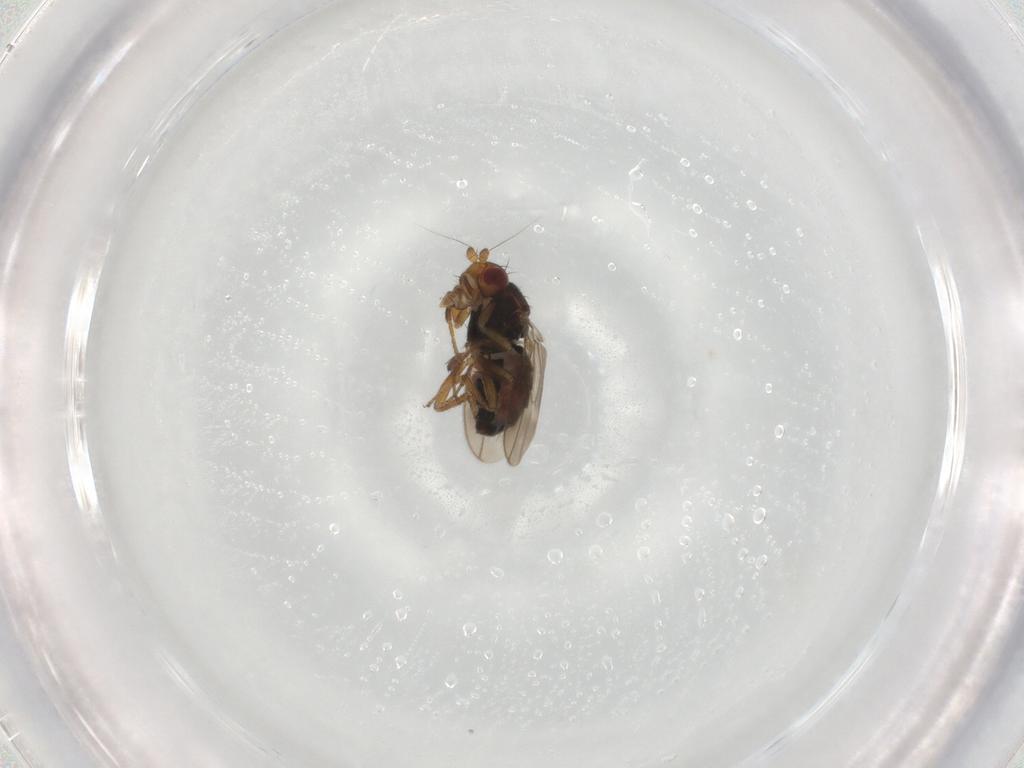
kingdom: Animalia
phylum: Arthropoda
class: Insecta
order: Diptera
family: Sphaeroceridae
